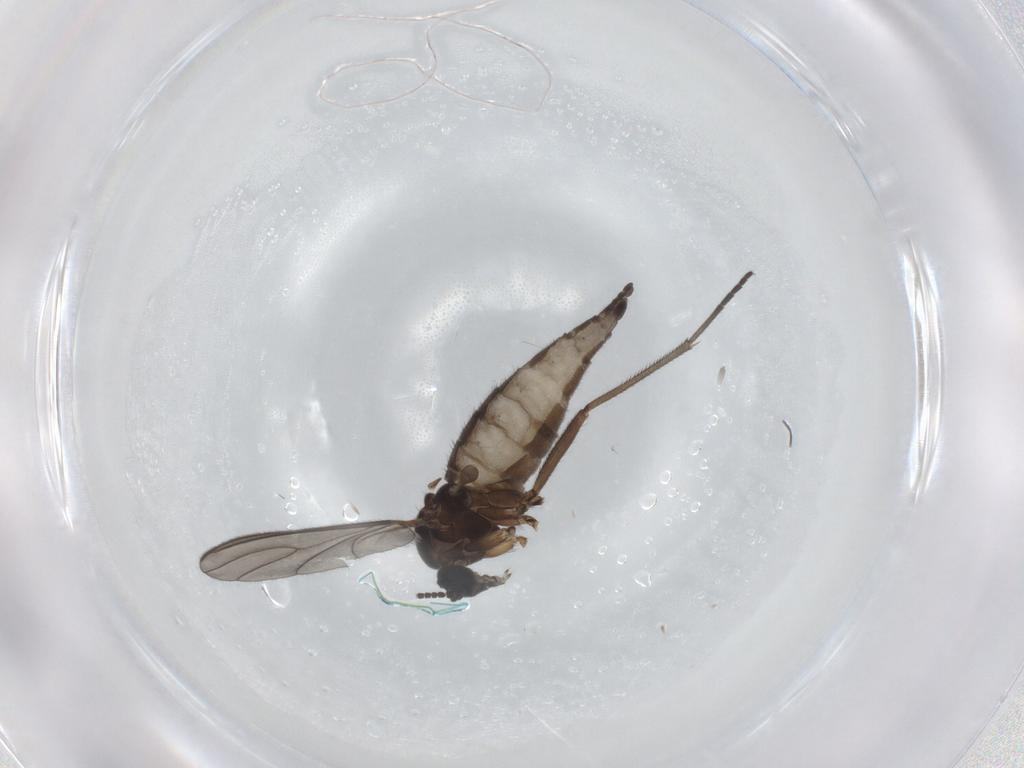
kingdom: Animalia
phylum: Arthropoda
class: Insecta
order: Diptera
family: Sciaridae
